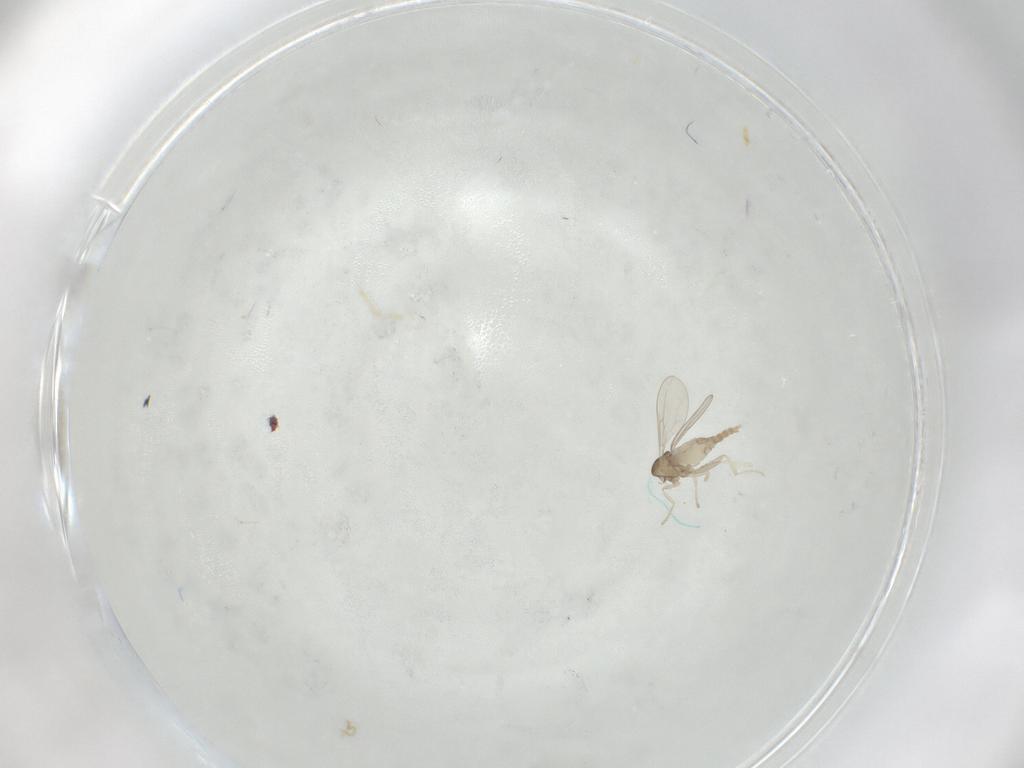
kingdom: Animalia
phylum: Arthropoda
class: Insecta
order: Diptera
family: Cecidomyiidae
